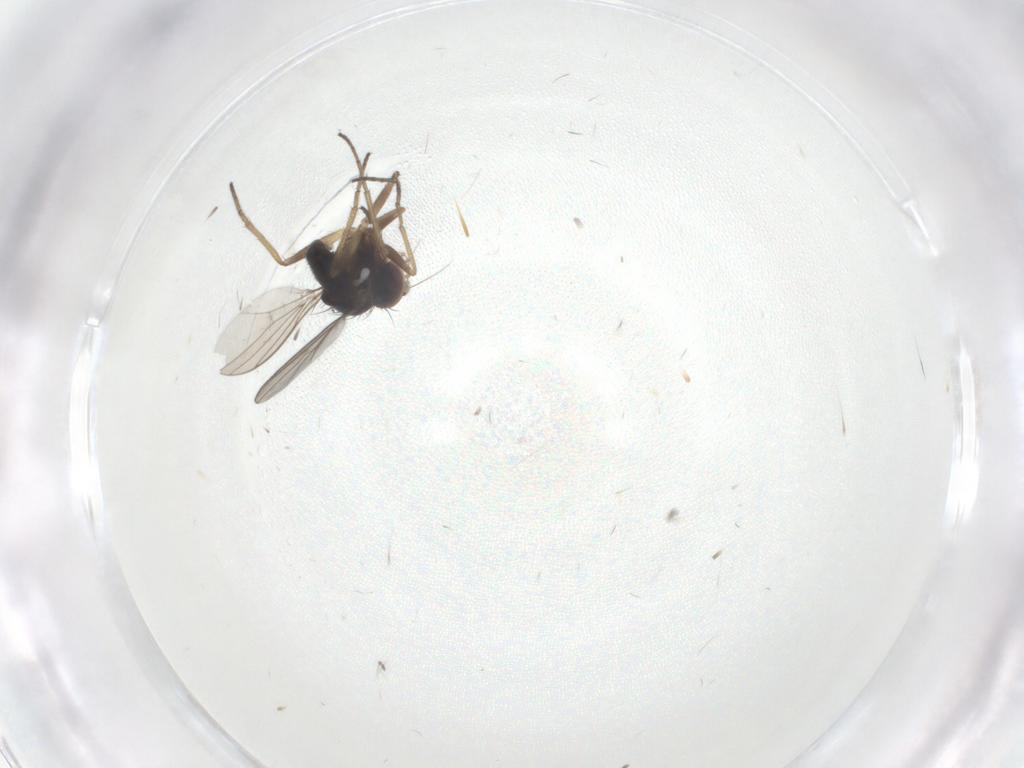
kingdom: Animalia
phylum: Arthropoda
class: Insecta
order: Diptera
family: Dolichopodidae
